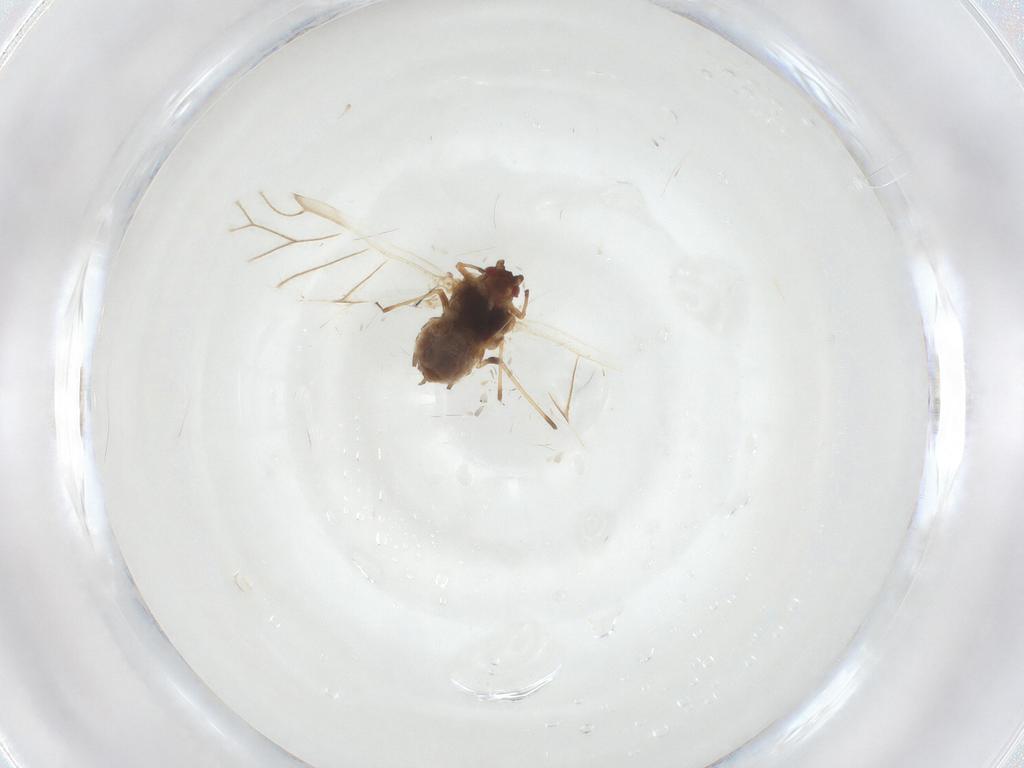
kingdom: Animalia
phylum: Arthropoda
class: Insecta
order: Hemiptera
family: Aphididae
